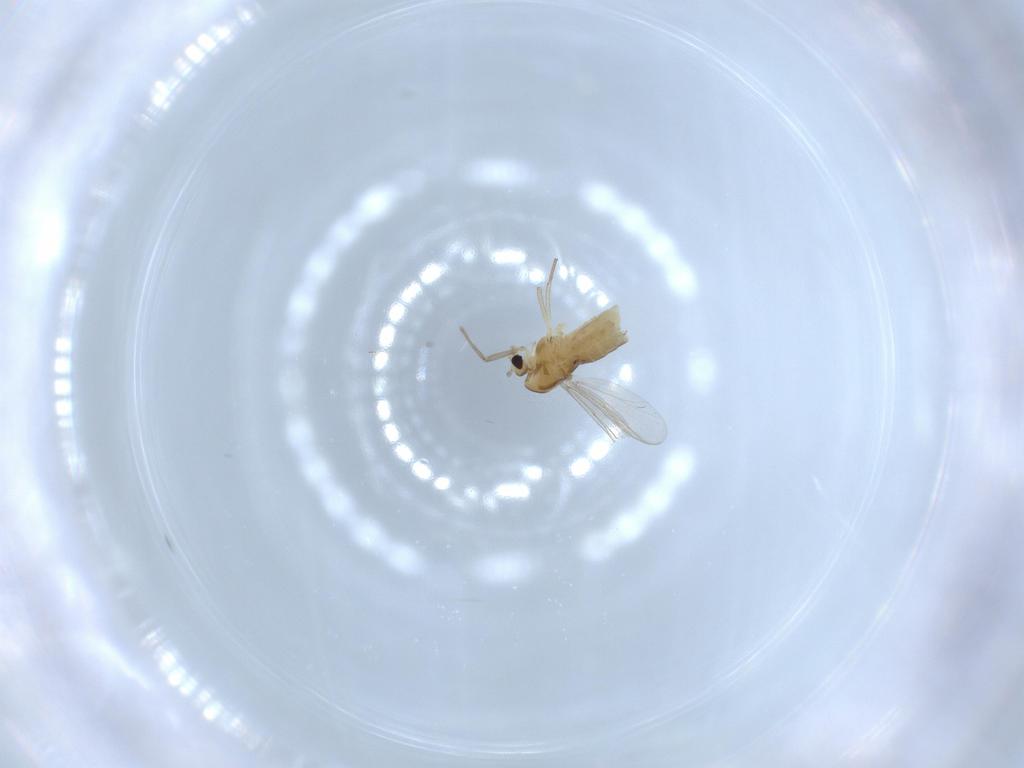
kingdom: Animalia
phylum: Arthropoda
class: Insecta
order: Diptera
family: Chironomidae
